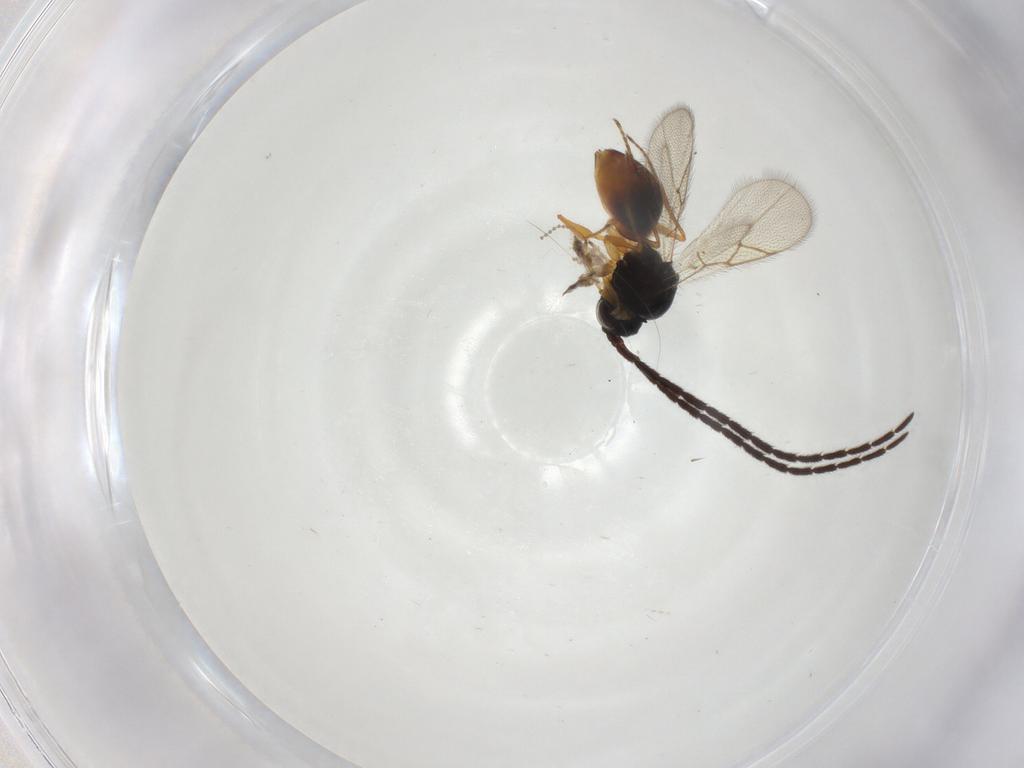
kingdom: Animalia
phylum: Arthropoda
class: Insecta
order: Hymenoptera
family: Figitidae
